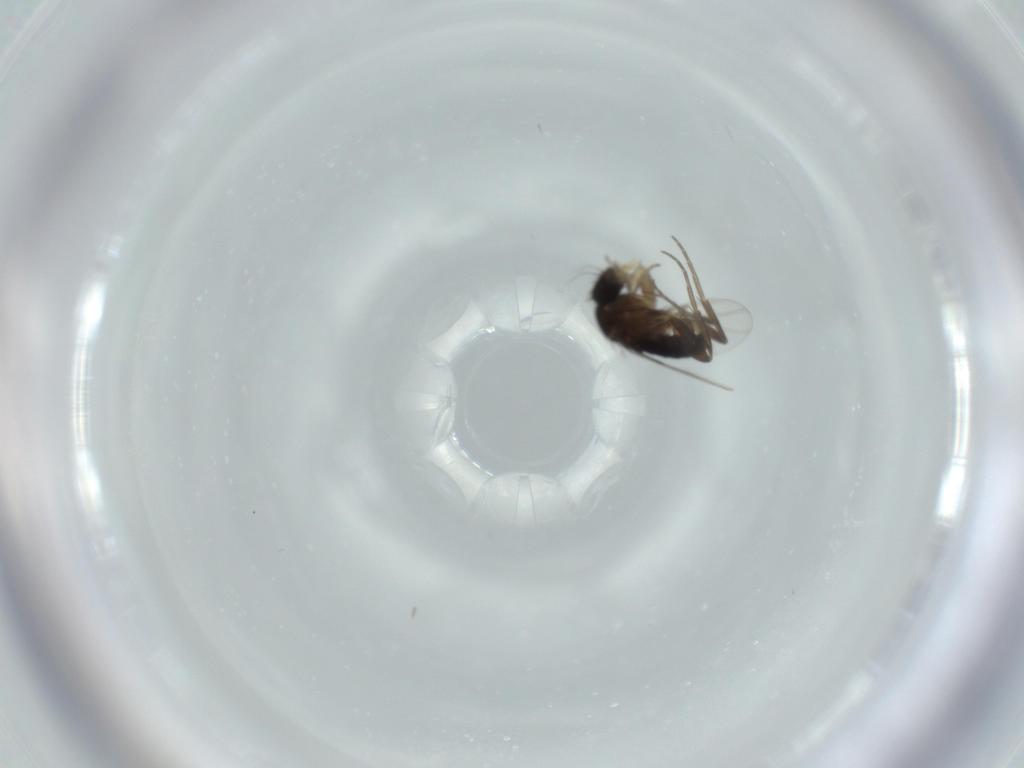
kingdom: Animalia
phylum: Arthropoda
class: Insecta
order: Diptera
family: Phoridae
